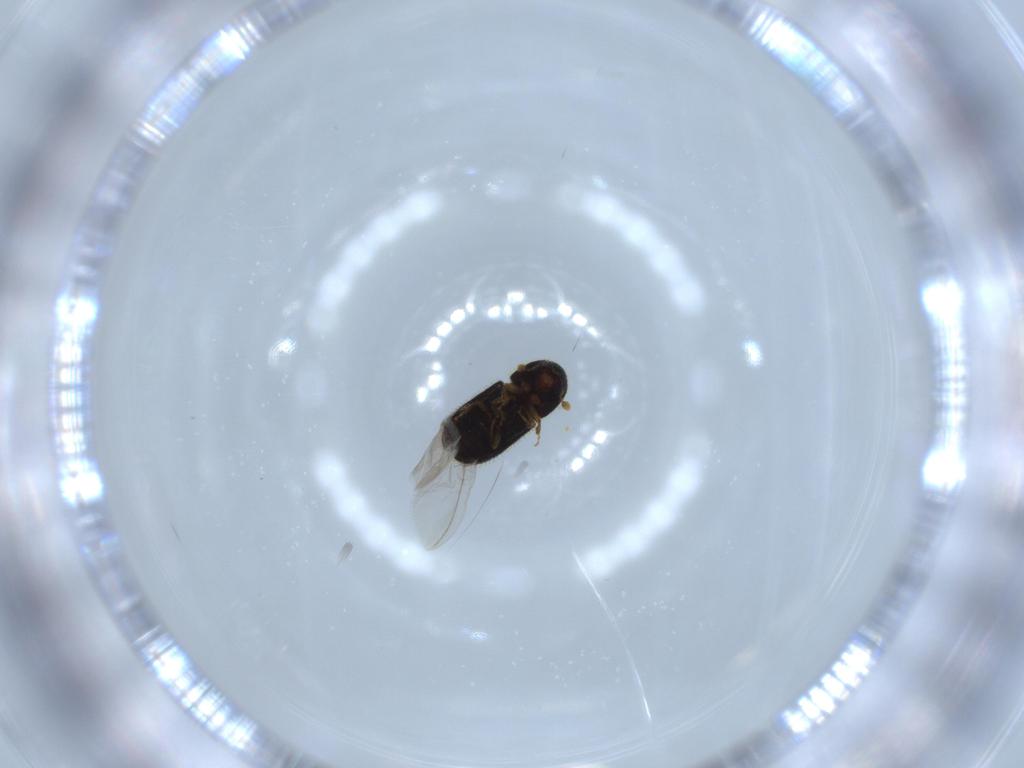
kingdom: Animalia
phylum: Arthropoda
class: Insecta
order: Coleoptera
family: Curculionidae
